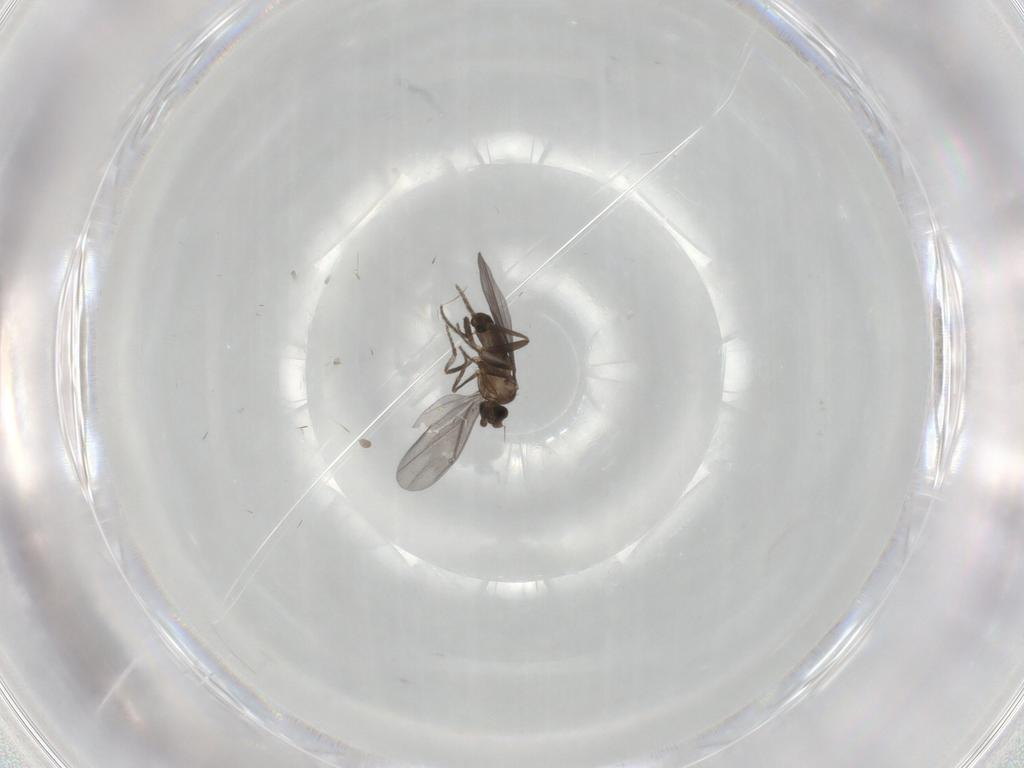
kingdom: Animalia
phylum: Arthropoda
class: Insecta
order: Diptera
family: Phoridae
